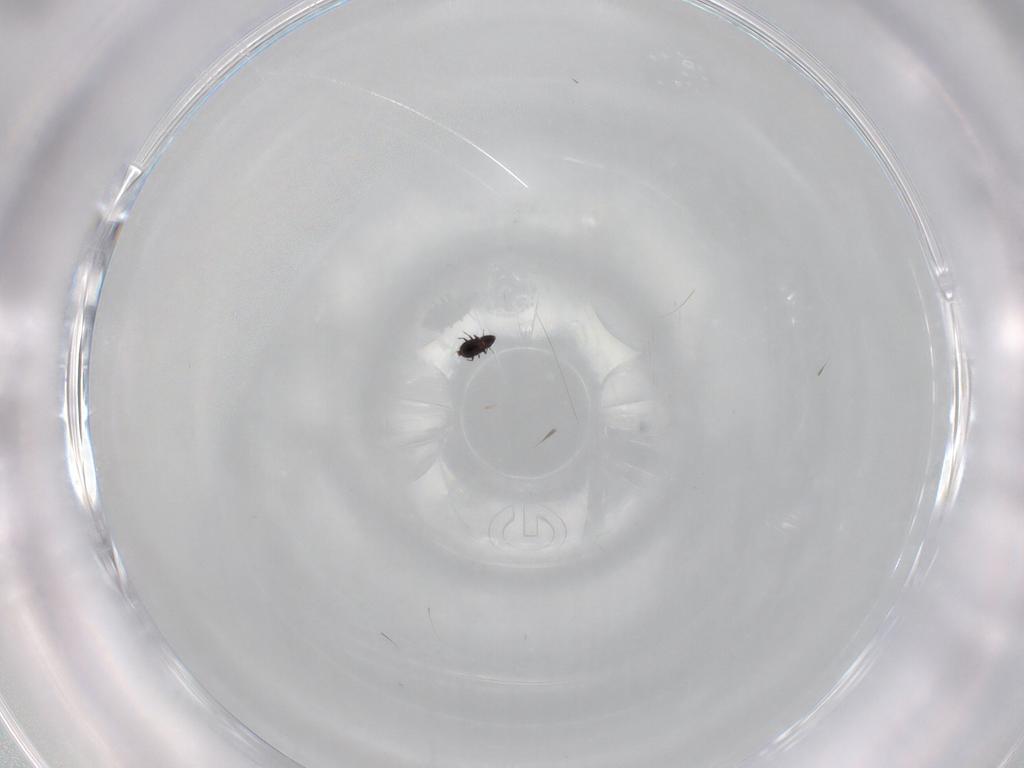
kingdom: Animalia
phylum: Arthropoda
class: Insecta
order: Coleoptera
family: Ripiphoridae
